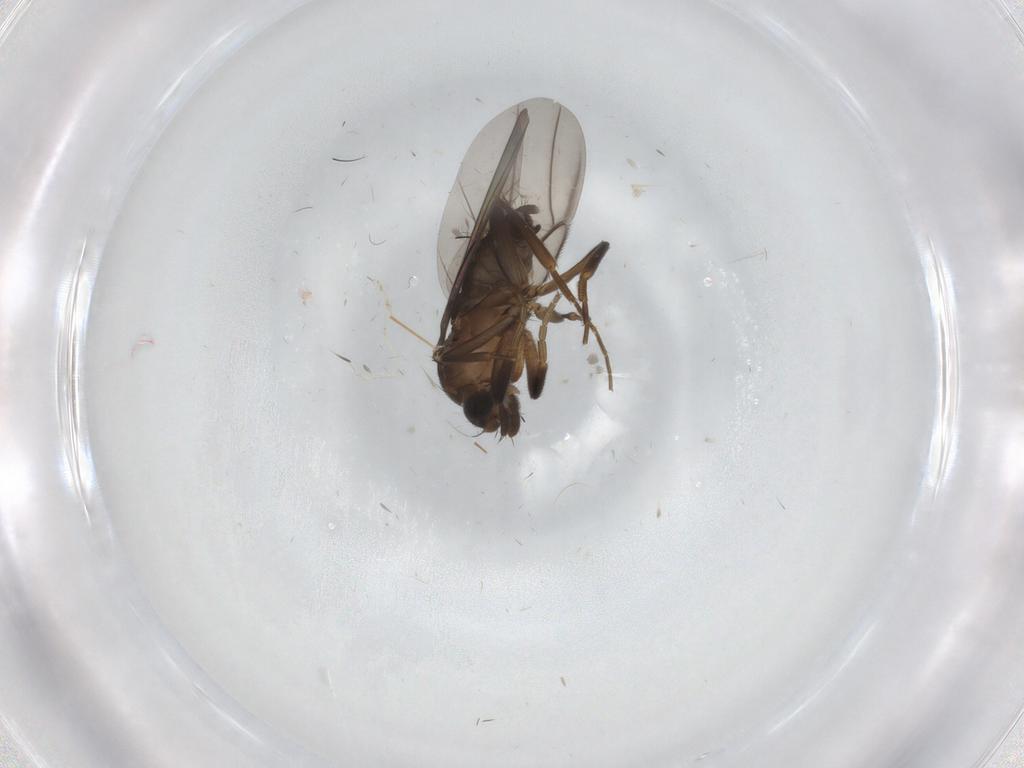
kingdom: Animalia
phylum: Arthropoda
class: Insecta
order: Diptera
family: Phoridae
